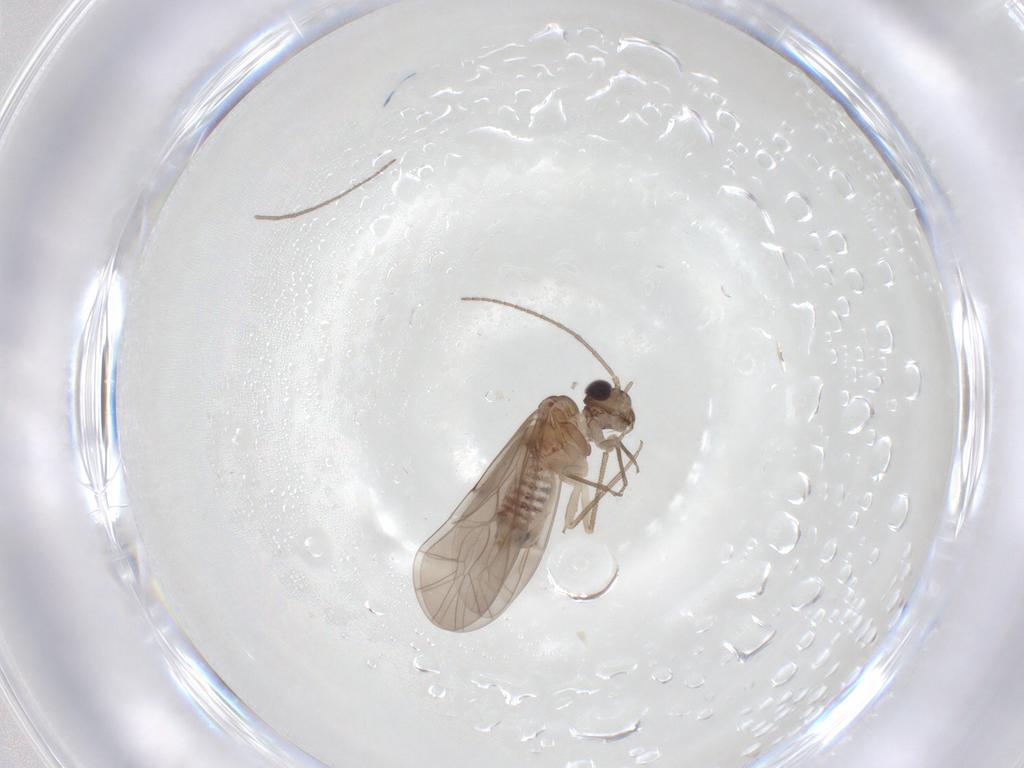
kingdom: Animalia
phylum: Arthropoda
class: Insecta
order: Psocodea
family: Peripsocidae
